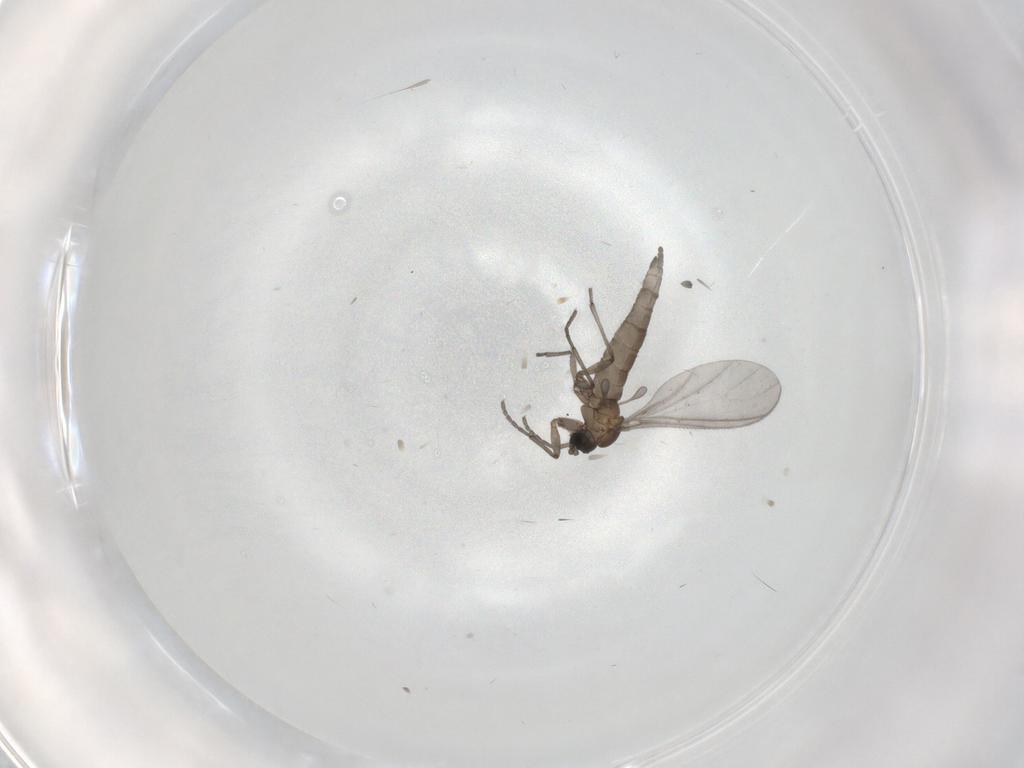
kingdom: Animalia
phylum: Arthropoda
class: Insecta
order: Diptera
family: Sciaridae
